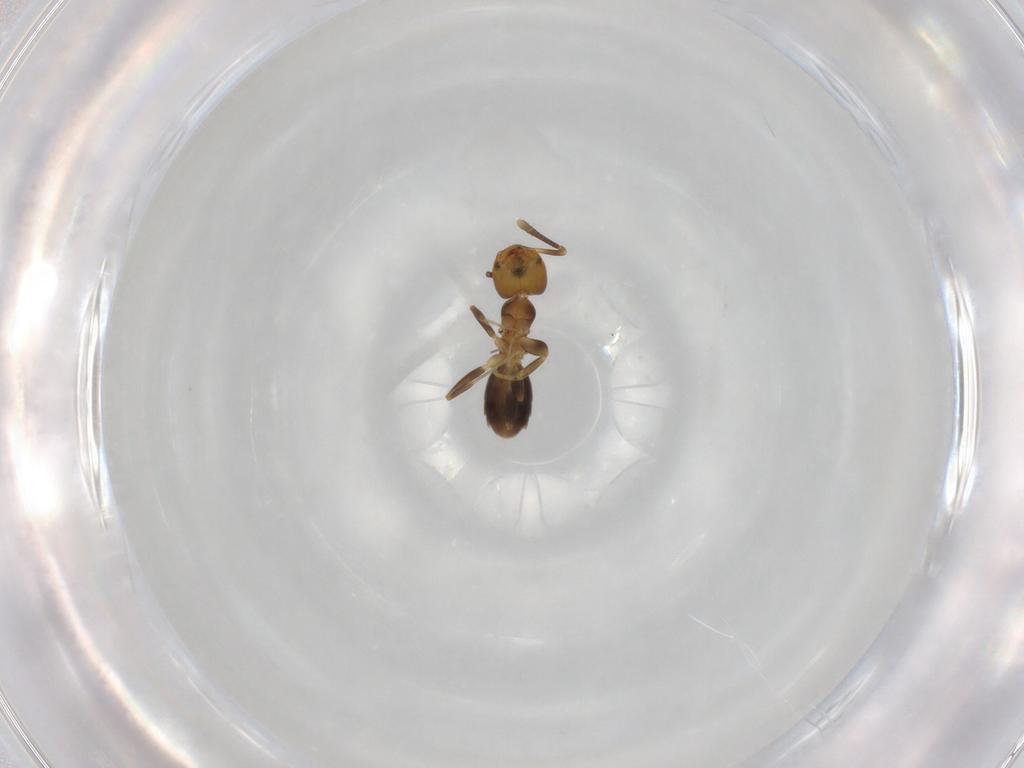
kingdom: Animalia
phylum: Arthropoda
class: Insecta
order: Hymenoptera
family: Formicidae
